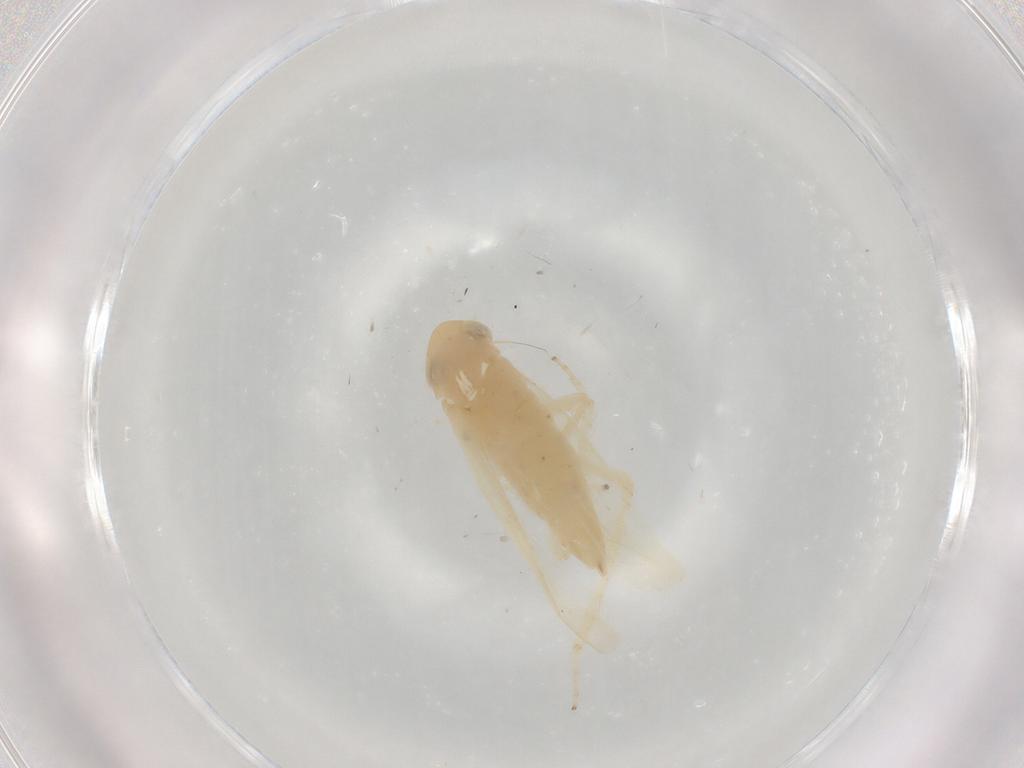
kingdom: Animalia
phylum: Arthropoda
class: Insecta
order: Hemiptera
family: Cicadellidae
